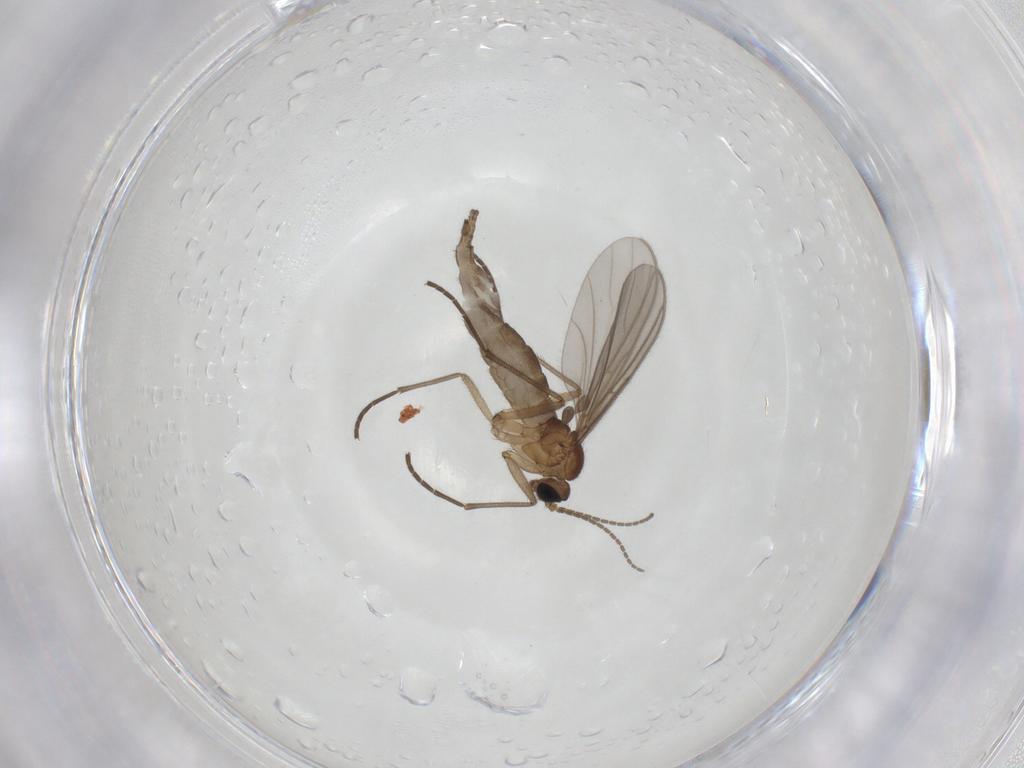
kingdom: Animalia
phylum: Arthropoda
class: Insecta
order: Diptera
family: Sciaridae
